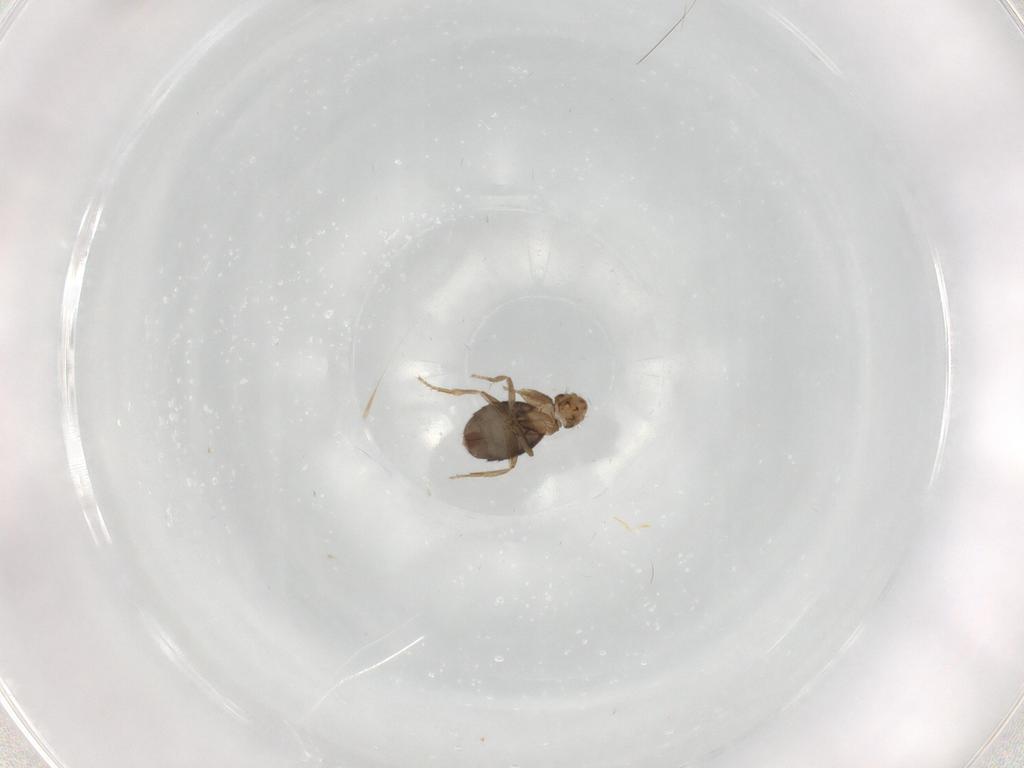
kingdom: Animalia
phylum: Arthropoda
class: Insecta
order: Diptera
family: Phoridae
